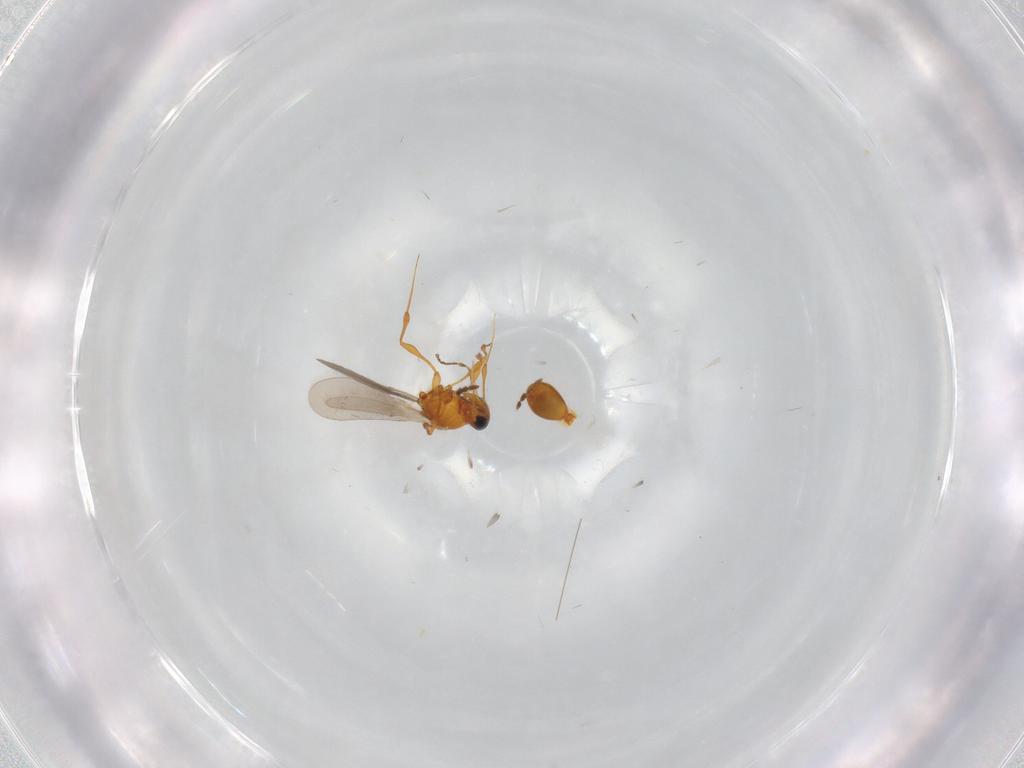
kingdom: Animalia
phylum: Arthropoda
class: Insecta
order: Hymenoptera
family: Platygastridae
